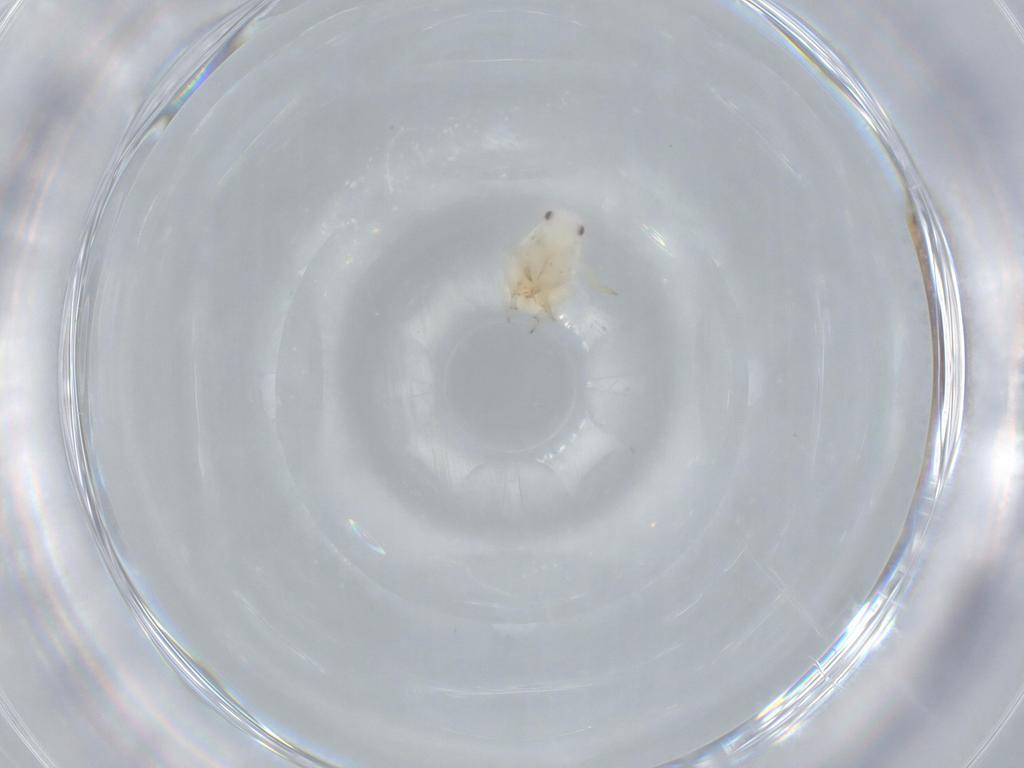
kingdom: Animalia
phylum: Arthropoda
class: Insecta
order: Hemiptera
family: Flatidae
